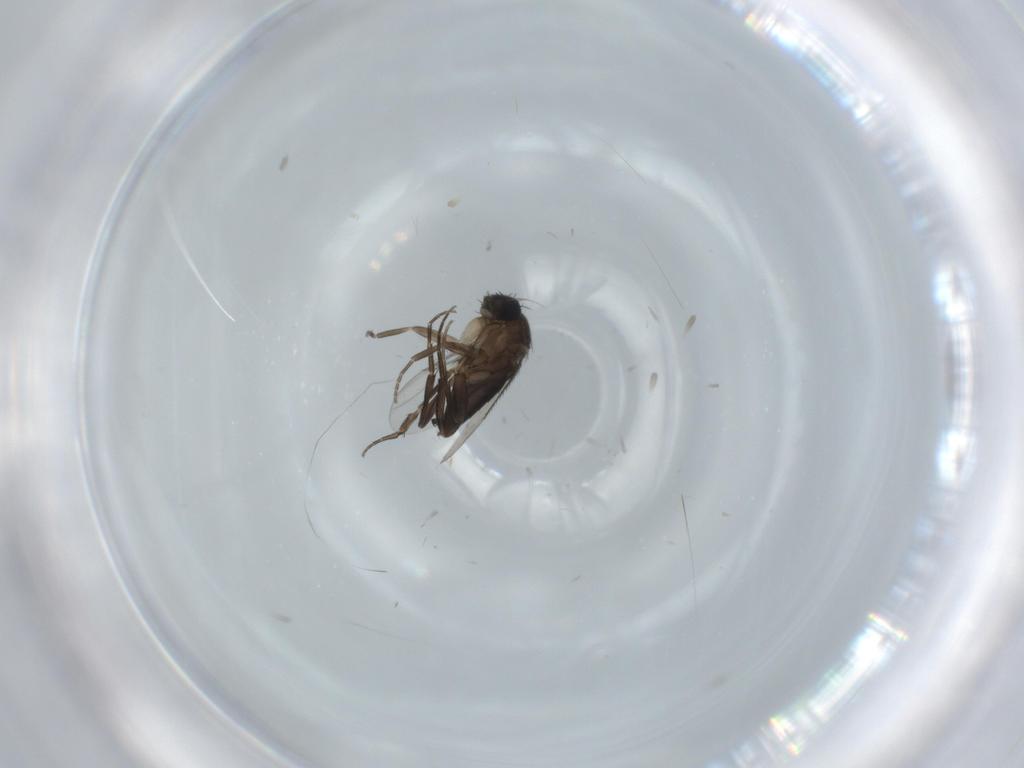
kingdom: Animalia
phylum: Arthropoda
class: Insecta
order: Diptera
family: Phoridae
